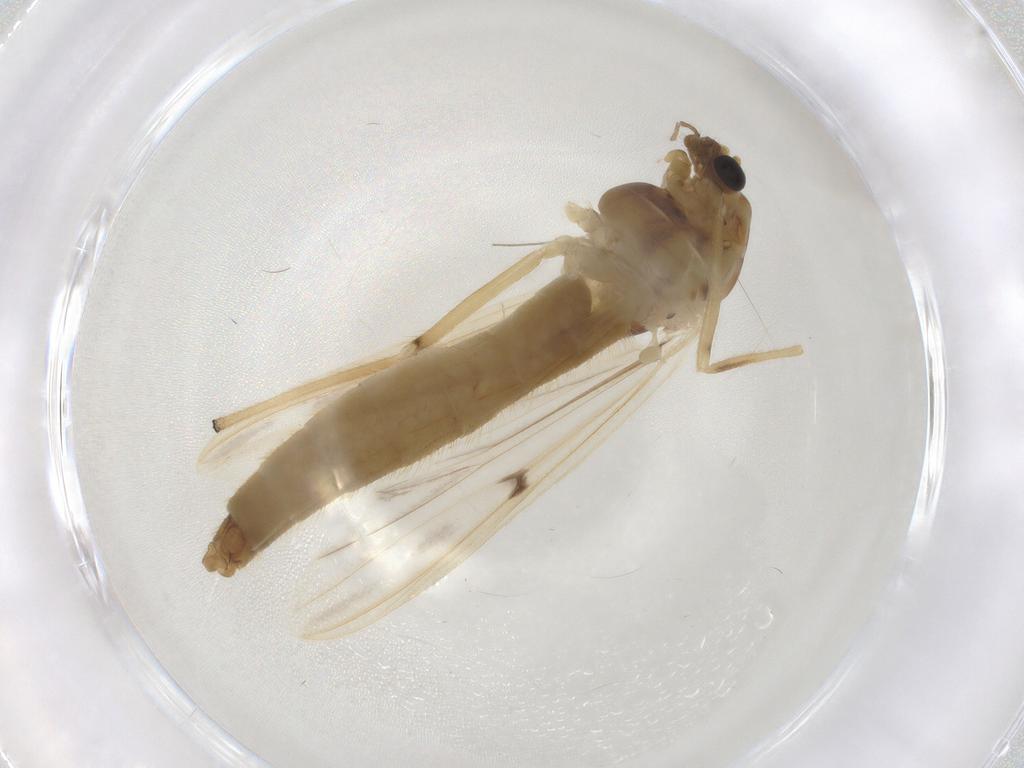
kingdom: Animalia
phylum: Arthropoda
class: Insecta
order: Diptera
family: Chironomidae
